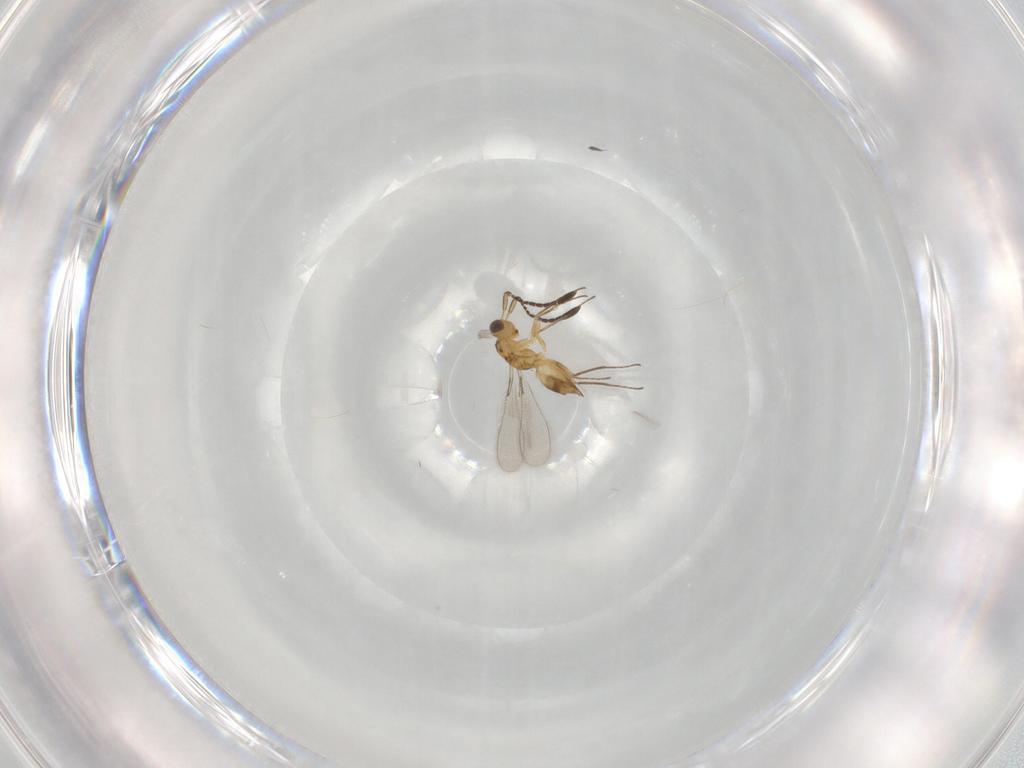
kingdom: Animalia
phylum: Arthropoda
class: Insecta
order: Hymenoptera
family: Mymaridae
